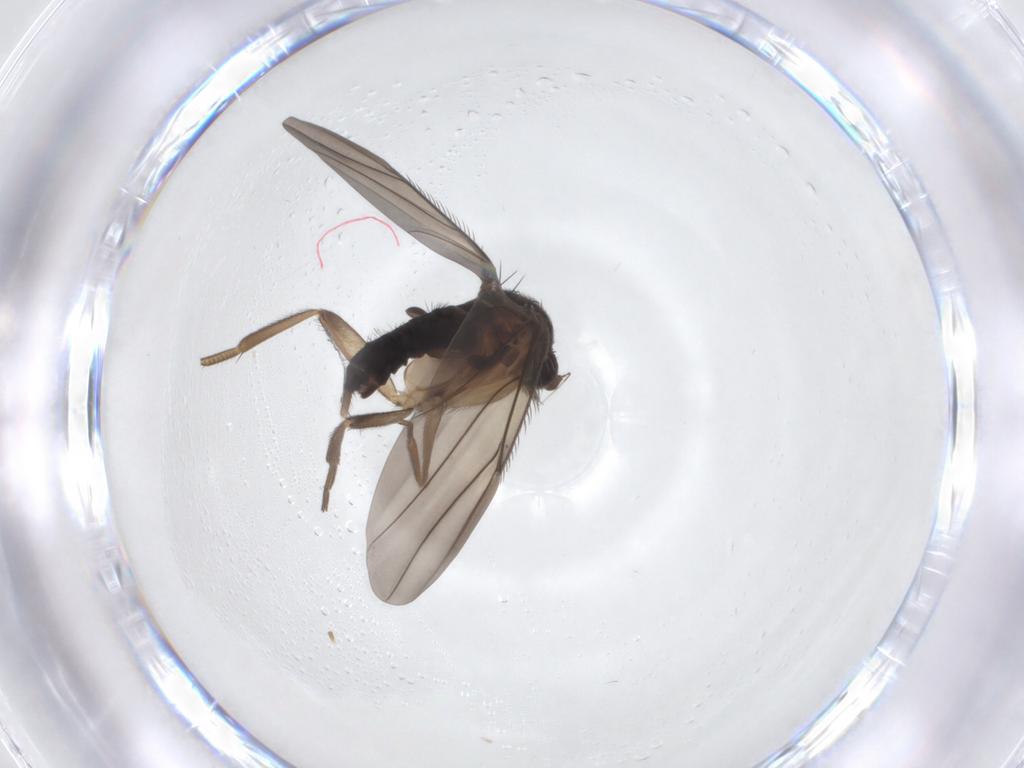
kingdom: Animalia
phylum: Arthropoda
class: Insecta
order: Diptera
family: Phoridae
